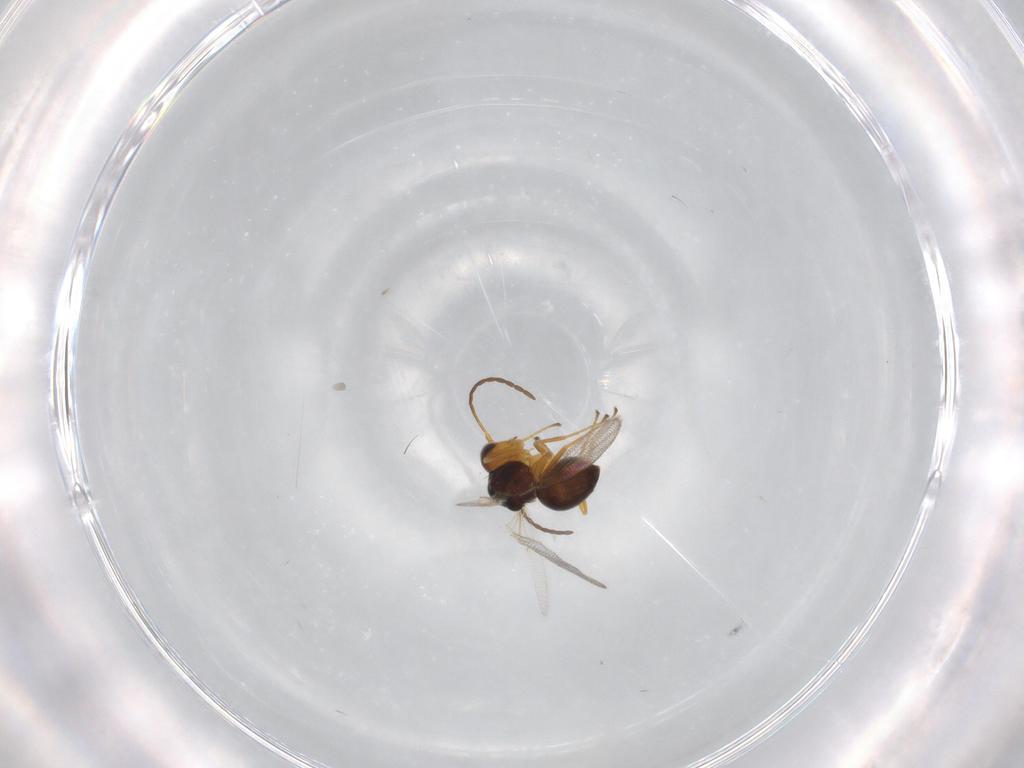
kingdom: Animalia
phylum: Arthropoda
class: Insecta
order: Hymenoptera
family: Figitidae
